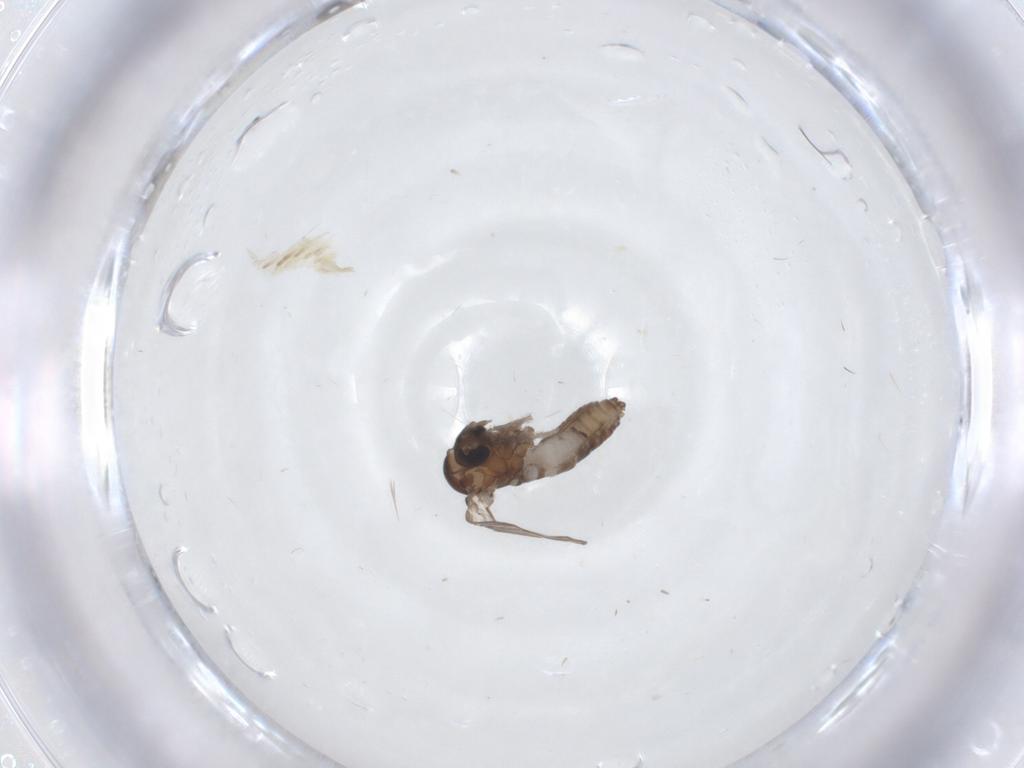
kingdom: Animalia
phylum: Arthropoda
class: Insecta
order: Diptera
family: Psychodidae
